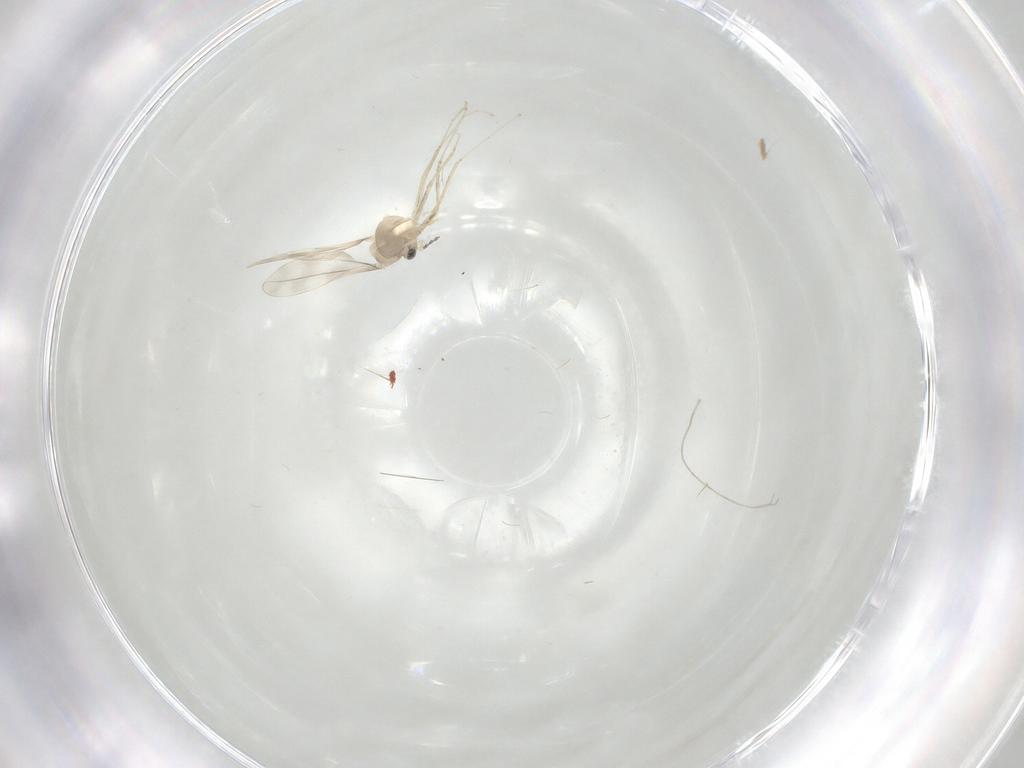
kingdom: Animalia
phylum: Arthropoda
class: Insecta
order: Diptera
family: Cecidomyiidae
